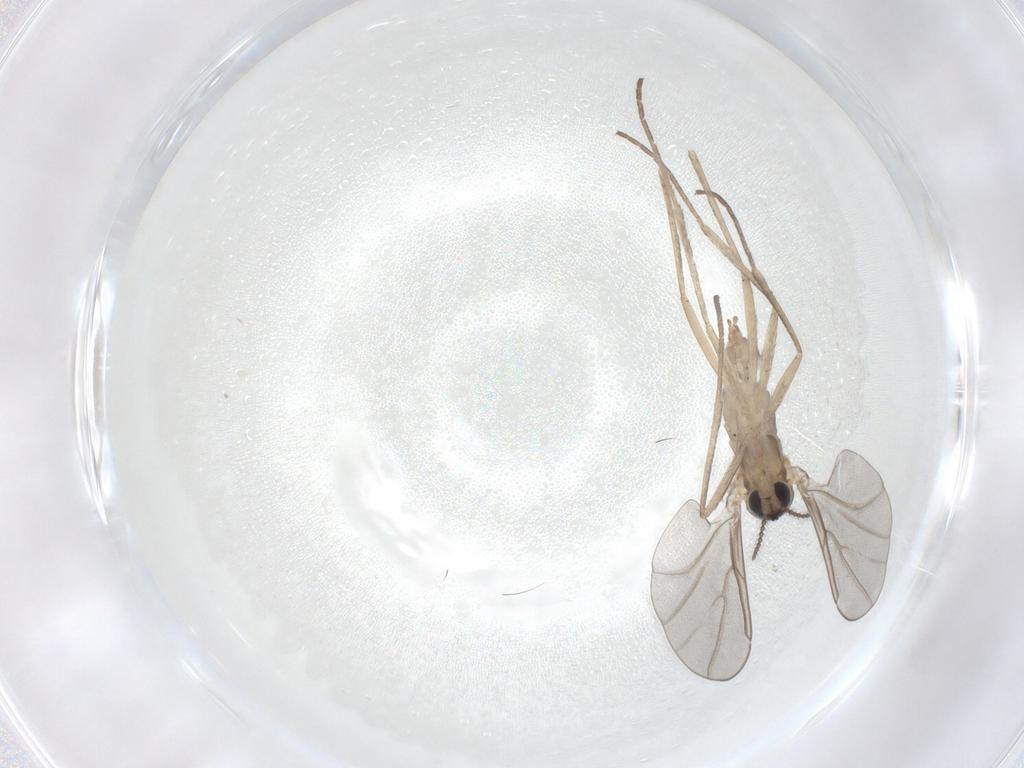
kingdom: Animalia
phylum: Arthropoda
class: Insecta
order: Diptera
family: Cecidomyiidae
